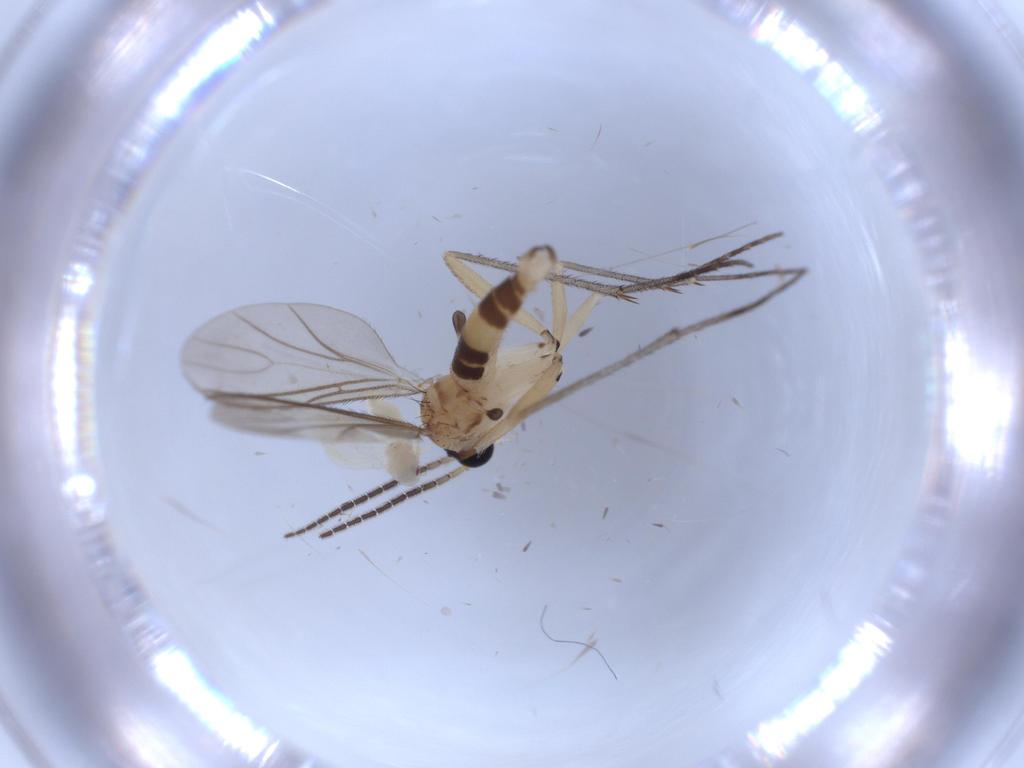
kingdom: Animalia
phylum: Arthropoda
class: Insecta
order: Diptera
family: Sciaridae
